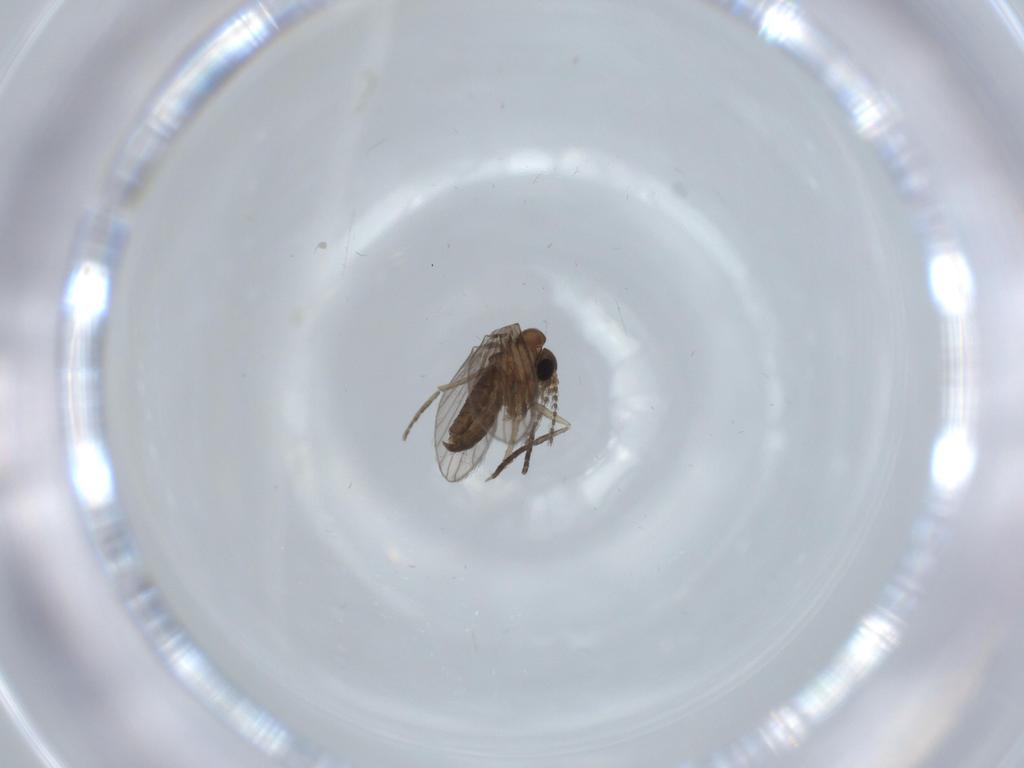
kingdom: Animalia
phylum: Arthropoda
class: Insecta
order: Diptera
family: Psychodidae
